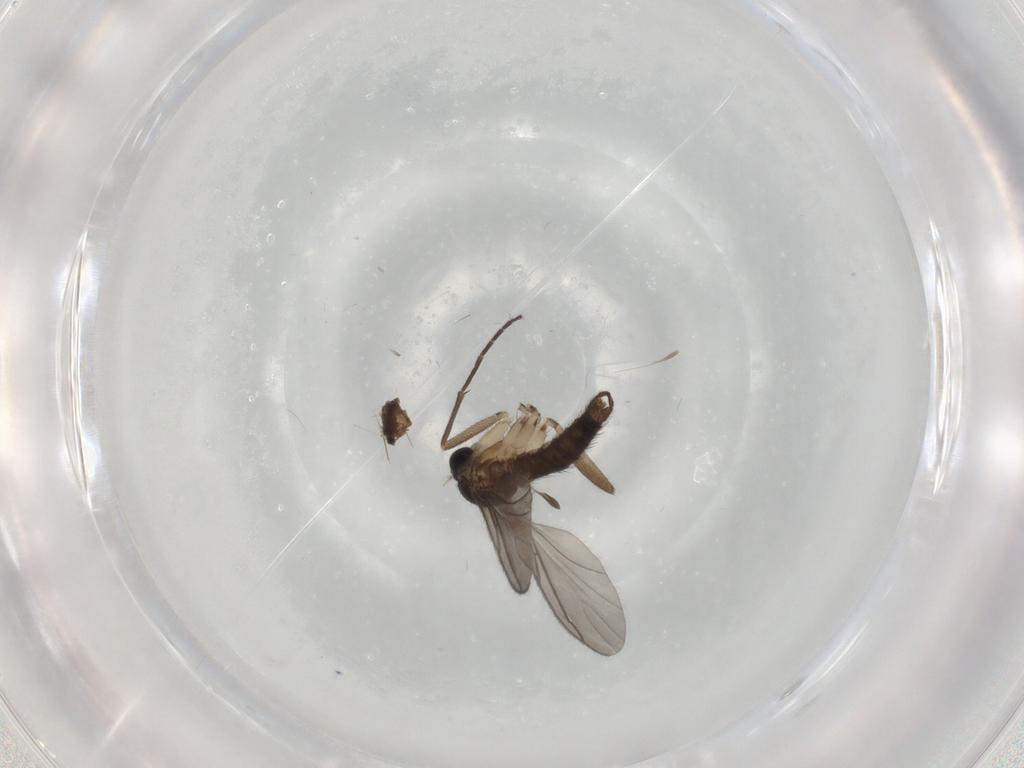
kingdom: Animalia
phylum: Arthropoda
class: Insecta
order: Diptera
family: Sciaridae
